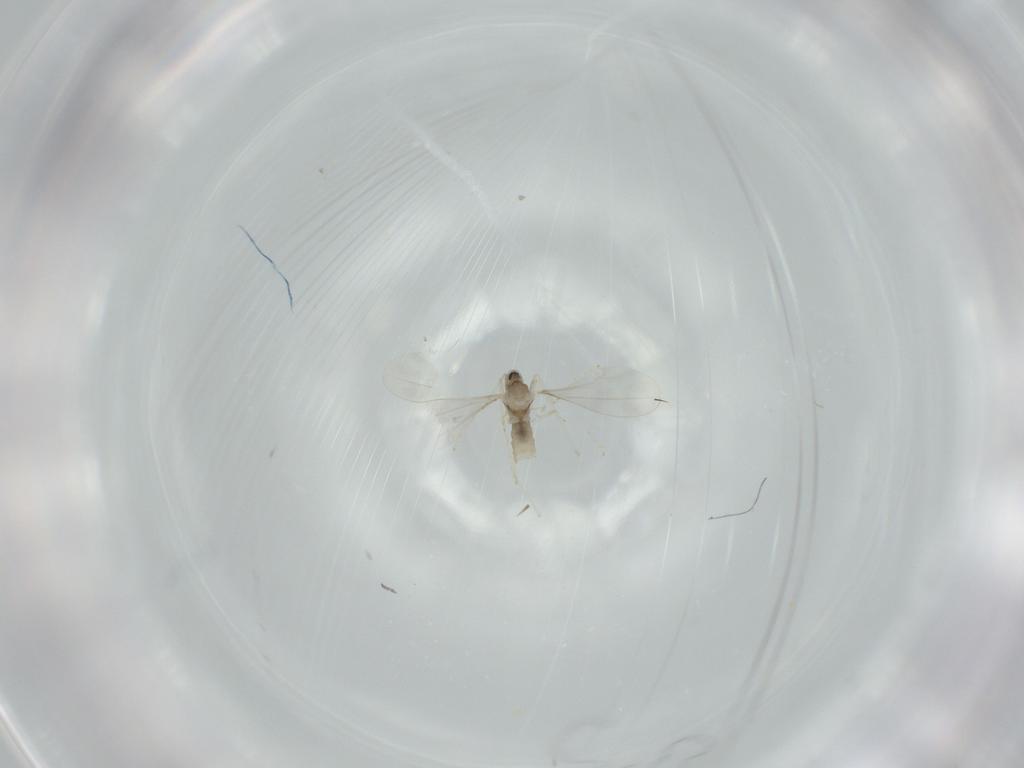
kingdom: Animalia
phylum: Arthropoda
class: Insecta
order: Diptera
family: Cecidomyiidae
